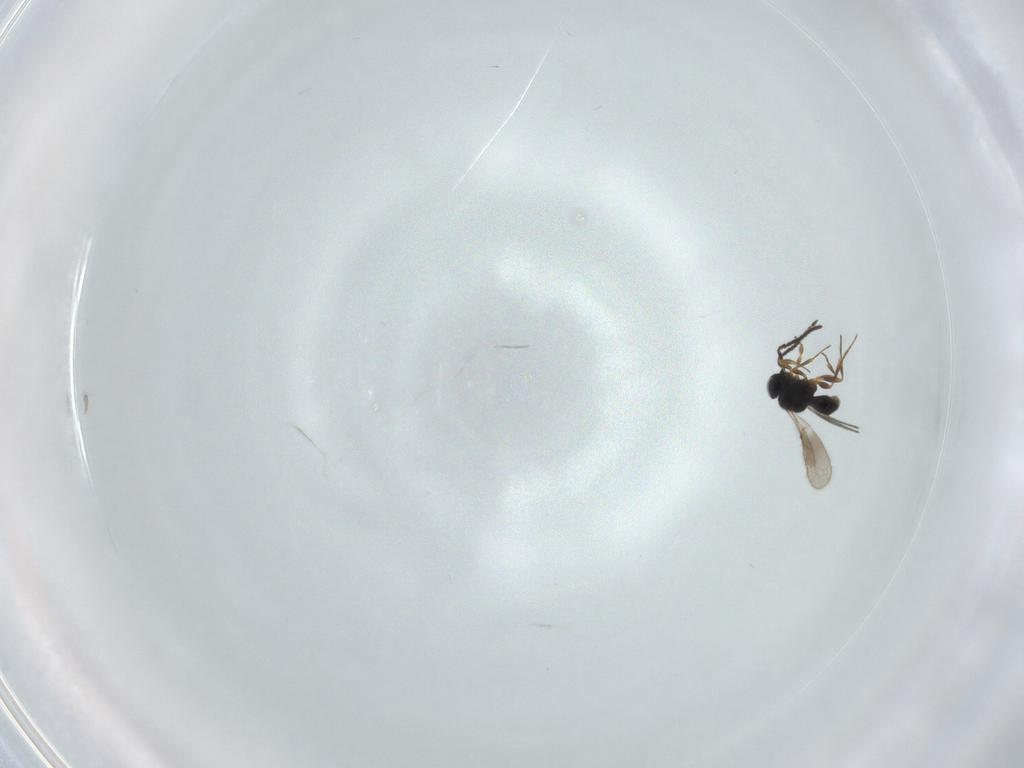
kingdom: Animalia
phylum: Arthropoda
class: Insecta
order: Hymenoptera
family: Scelionidae
